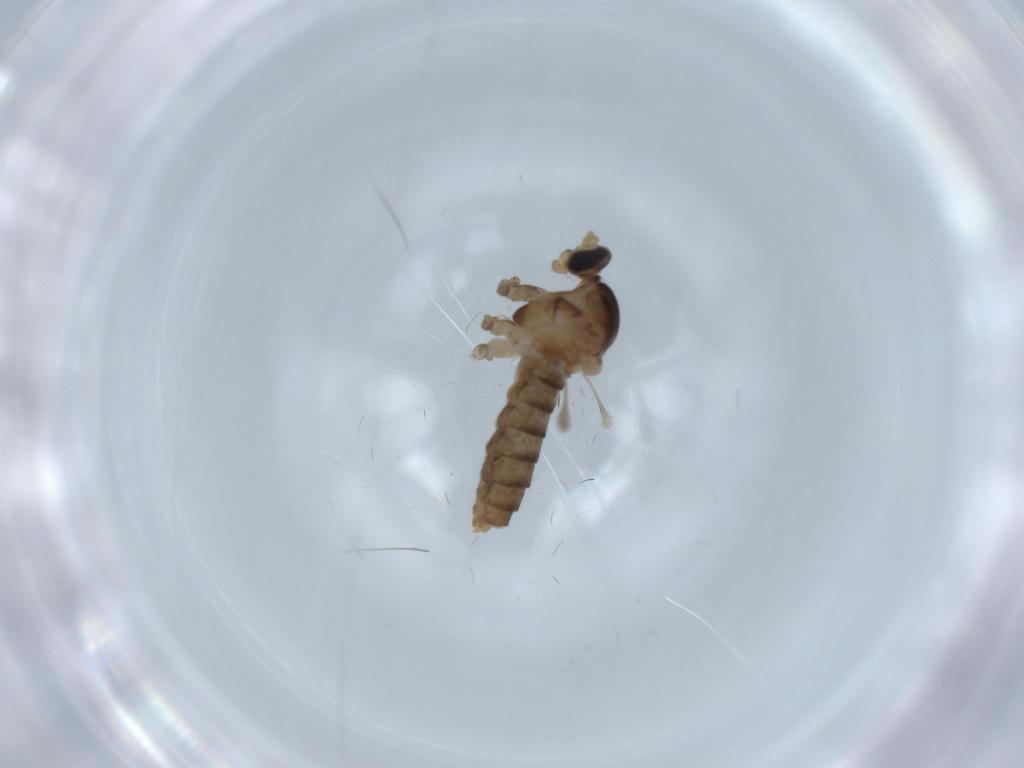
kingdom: Animalia
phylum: Arthropoda
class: Insecta
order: Diptera
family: Cecidomyiidae
